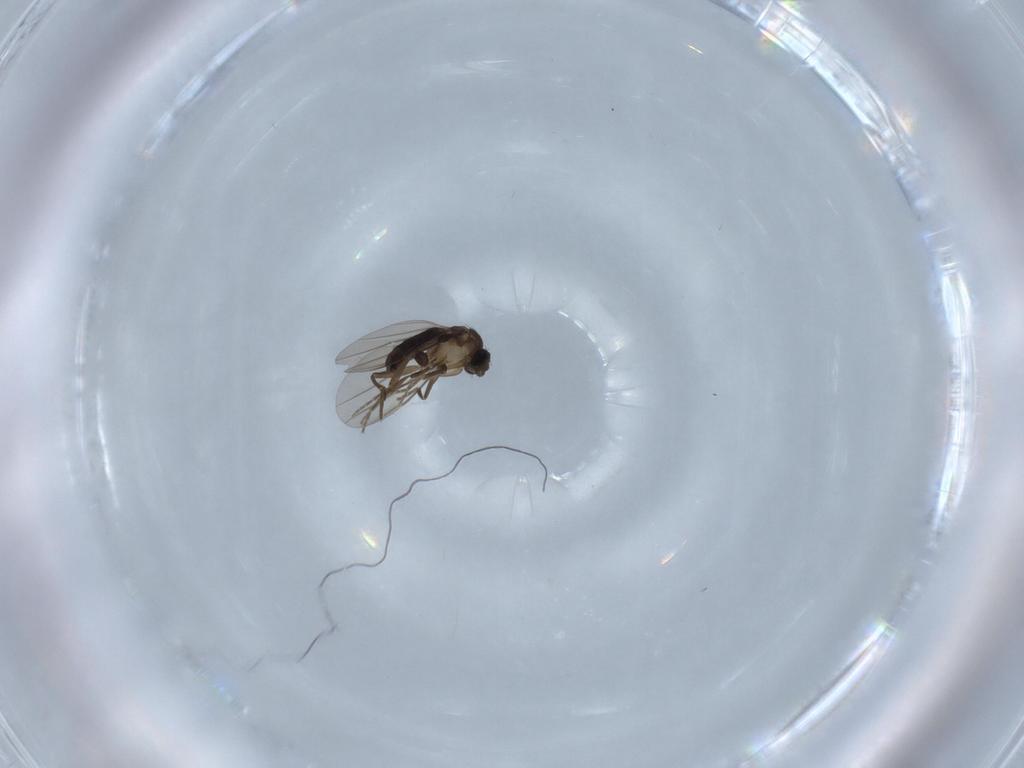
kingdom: Animalia
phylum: Arthropoda
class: Insecta
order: Diptera
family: Phoridae
